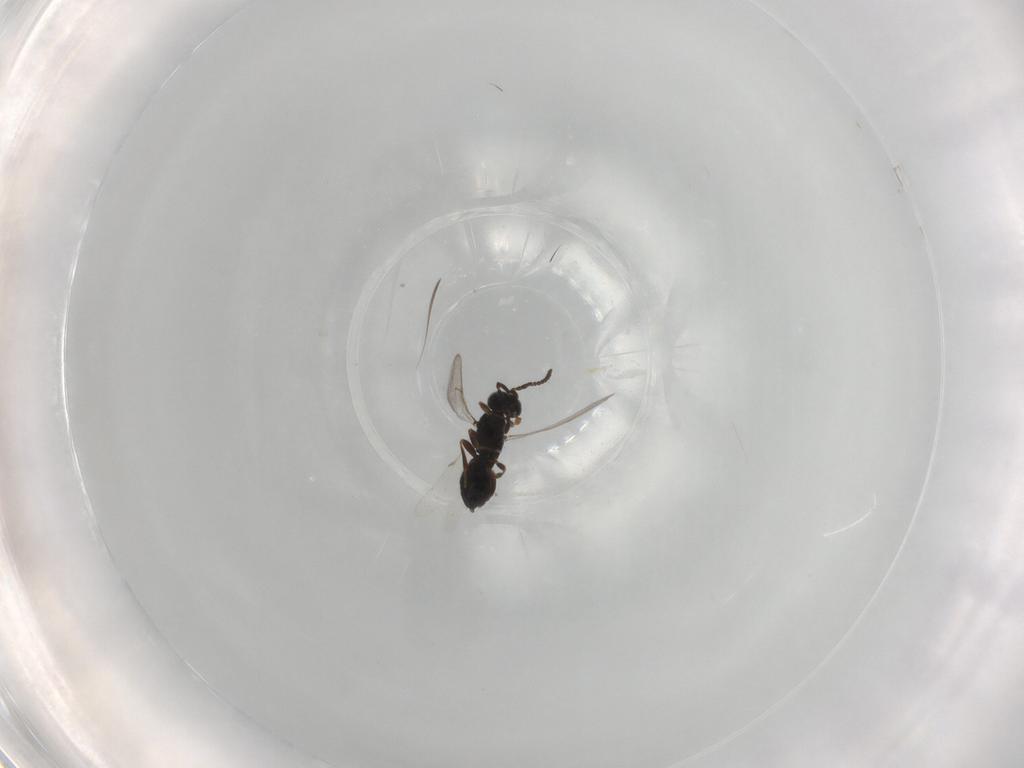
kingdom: Animalia
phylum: Arthropoda
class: Insecta
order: Hymenoptera
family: Scelionidae
